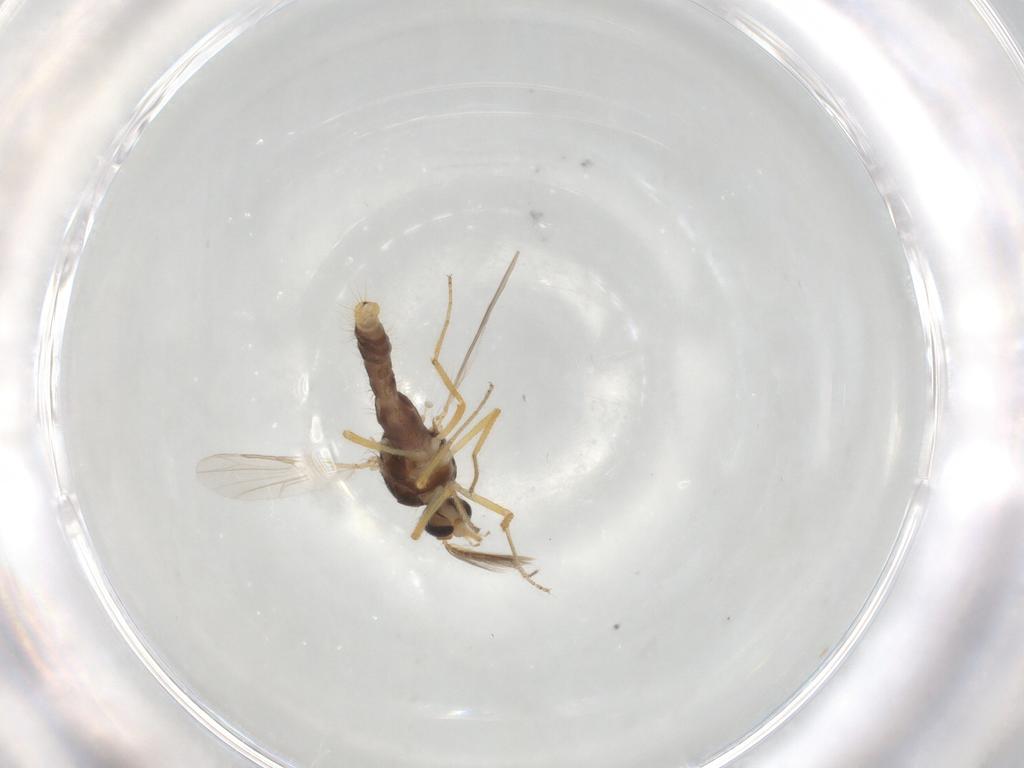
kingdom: Animalia
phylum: Arthropoda
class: Insecta
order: Diptera
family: Ceratopogonidae
